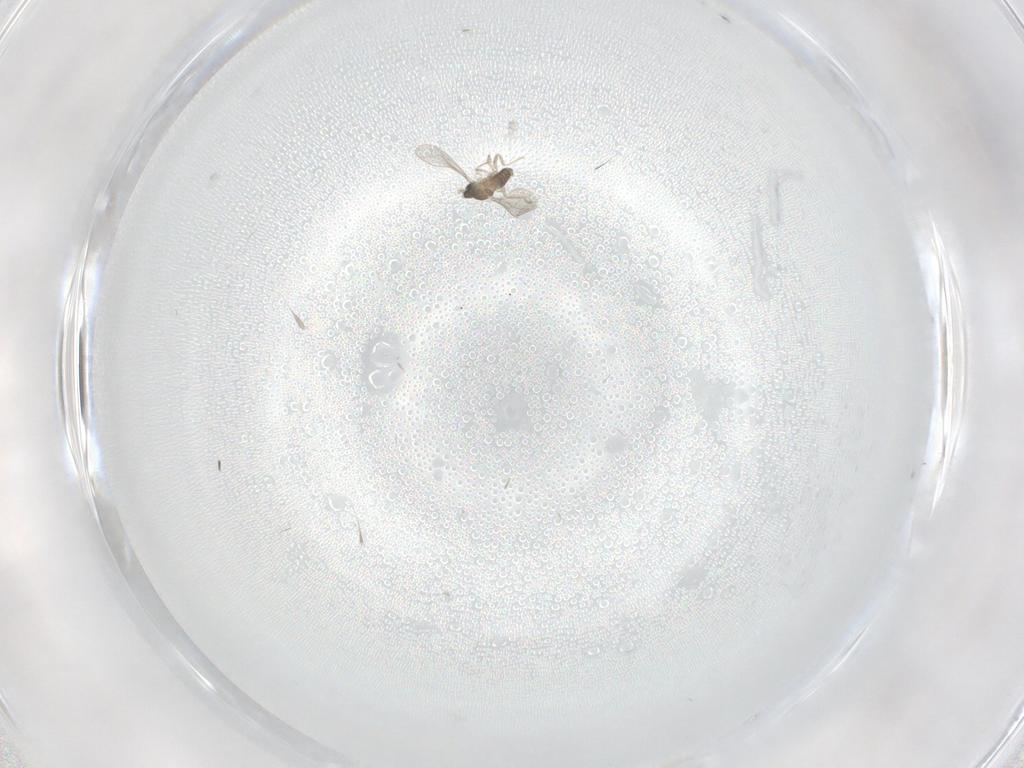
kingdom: Animalia
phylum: Arthropoda
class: Insecta
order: Diptera
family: Cecidomyiidae
